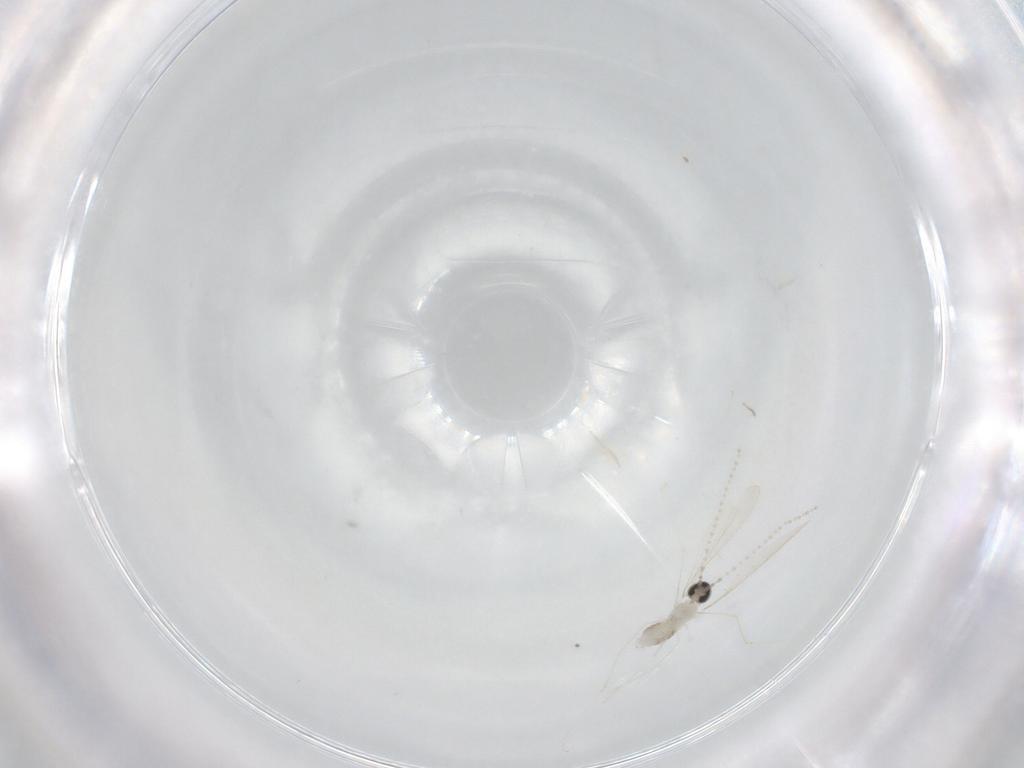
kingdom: Animalia
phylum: Arthropoda
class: Insecta
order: Diptera
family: Cecidomyiidae
